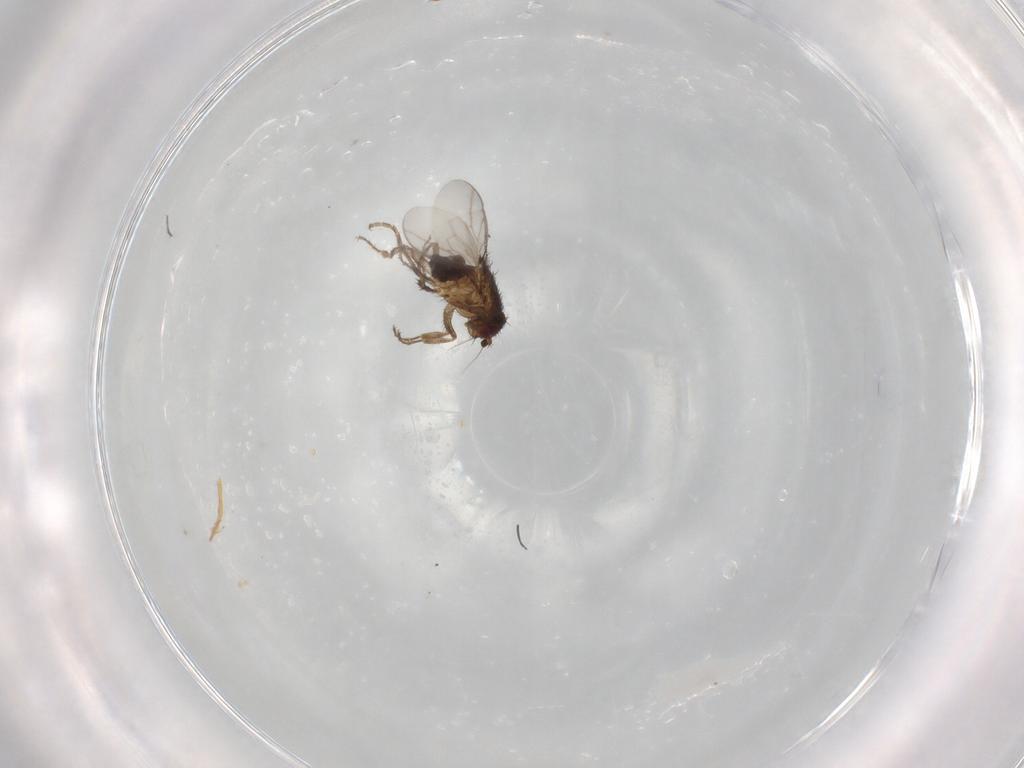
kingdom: Animalia
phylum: Arthropoda
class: Insecta
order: Diptera
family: Sphaeroceridae
